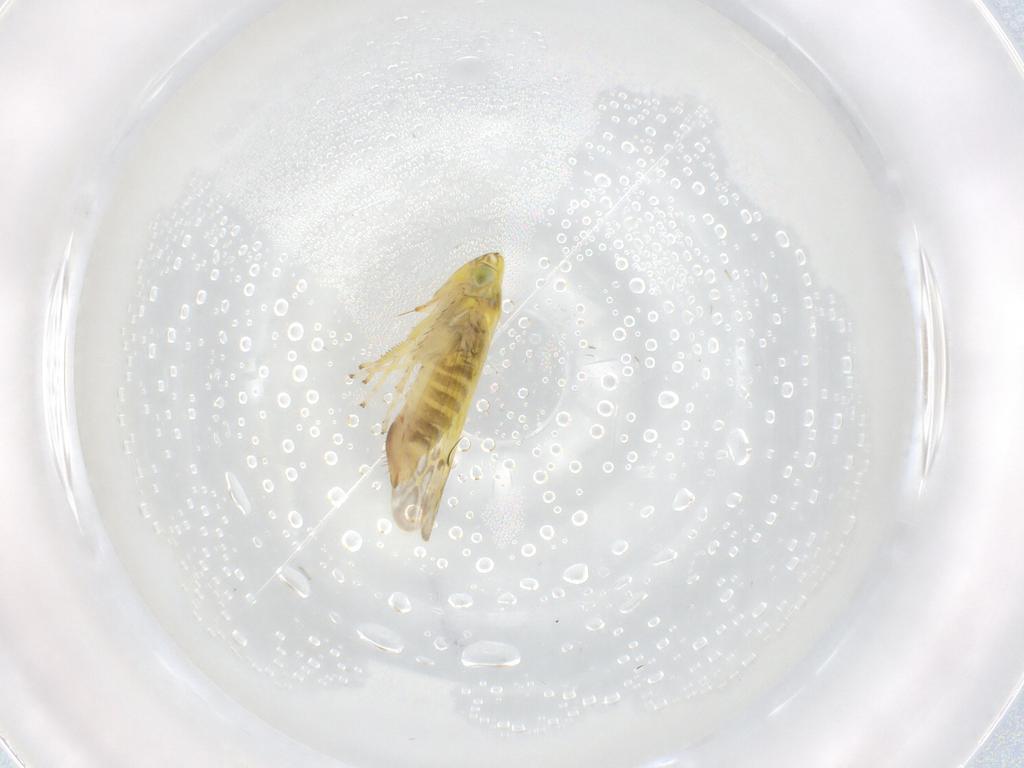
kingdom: Animalia
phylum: Arthropoda
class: Insecta
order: Hemiptera
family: Cicadellidae
